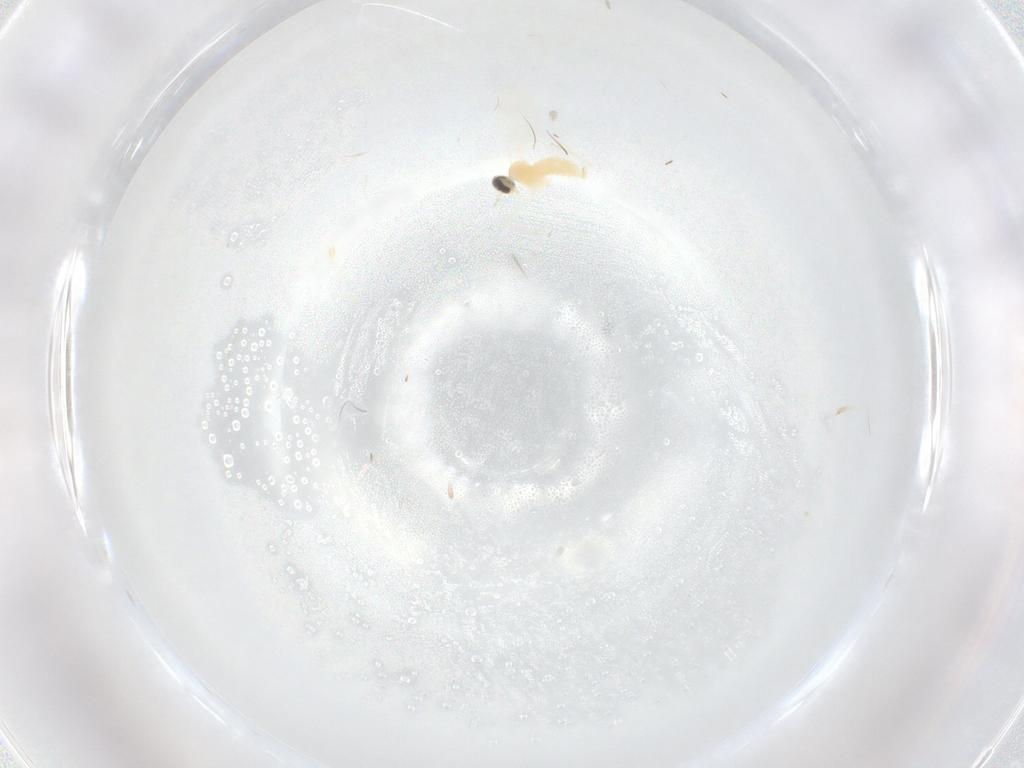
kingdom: Animalia
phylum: Arthropoda
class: Insecta
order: Diptera
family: Cecidomyiidae
